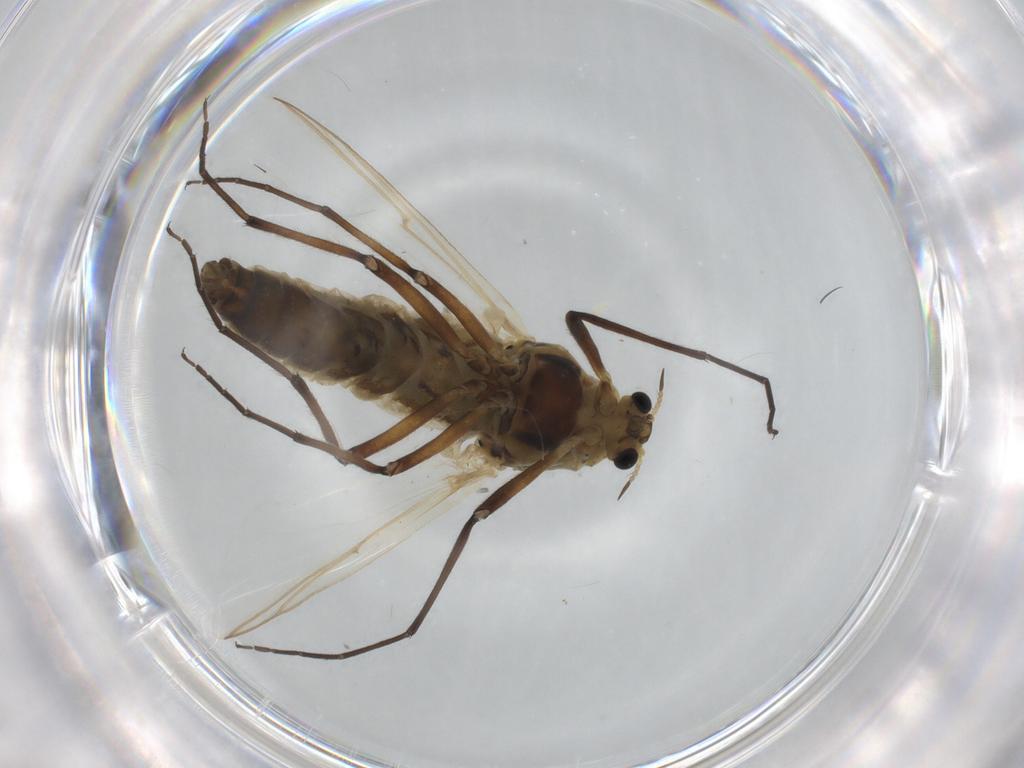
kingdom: Animalia
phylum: Arthropoda
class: Insecta
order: Diptera
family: Chironomidae
